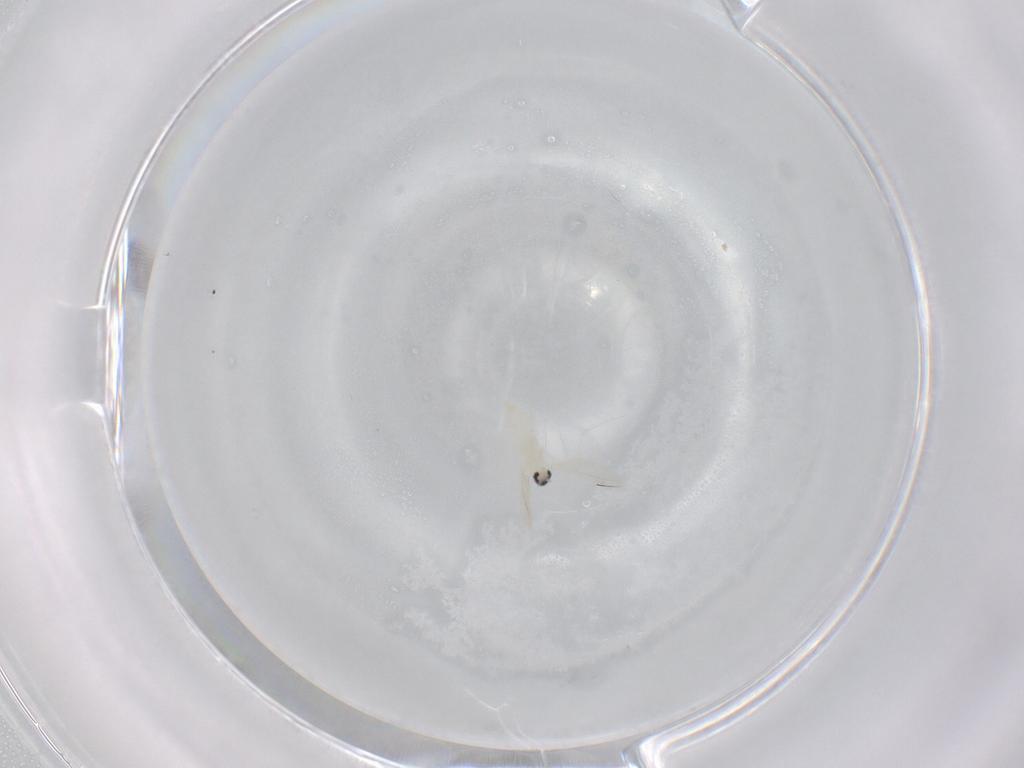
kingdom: Animalia
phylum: Arthropoda
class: Insecta
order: Diptera
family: Cecidomyiidae
